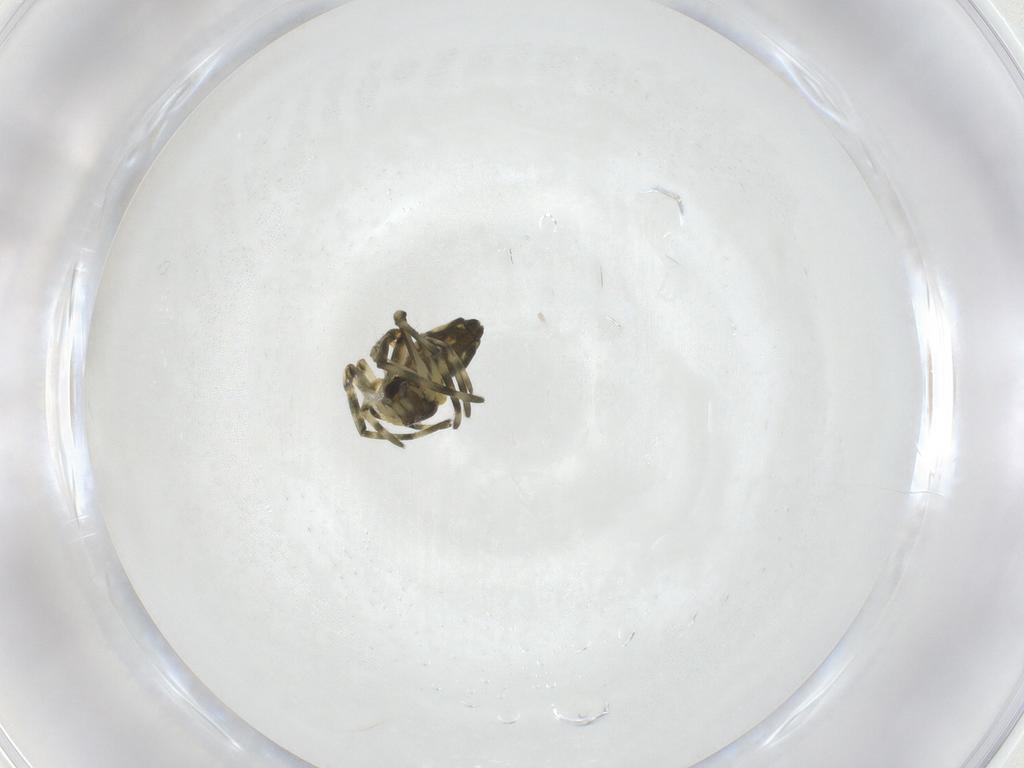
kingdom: Animalia
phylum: Arthropoda
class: Arachnida
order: Araneae
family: Tetragnathidae
